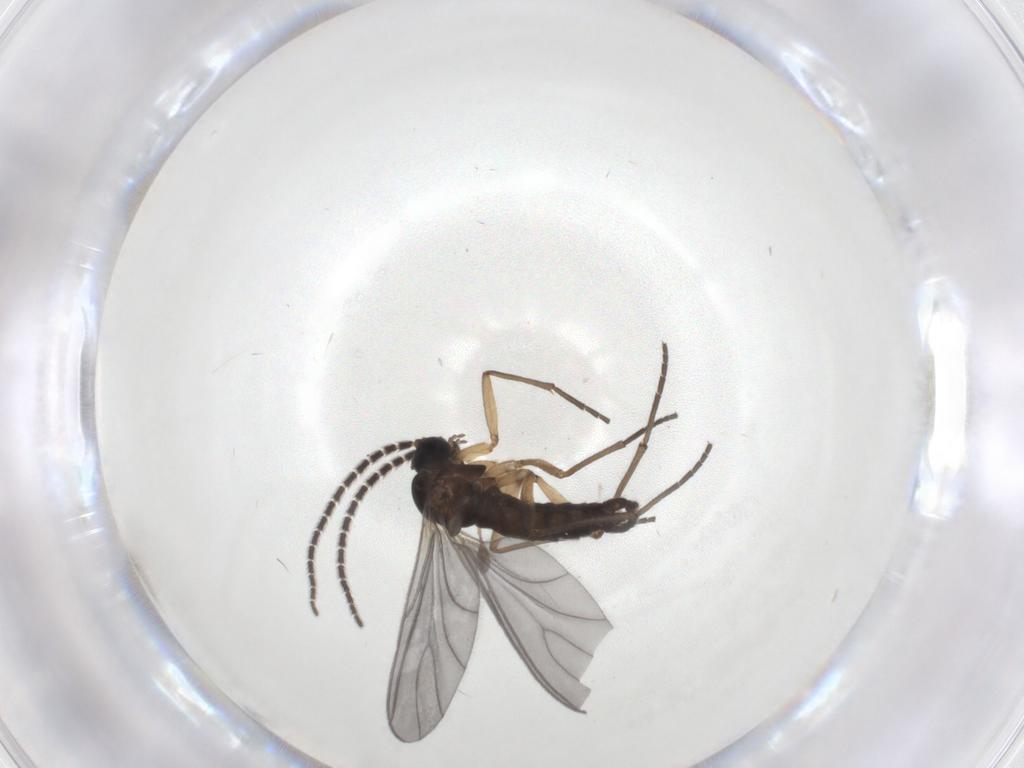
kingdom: Animalia
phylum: Arthropoda
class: Insecta
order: Diptera
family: Sciaridae
